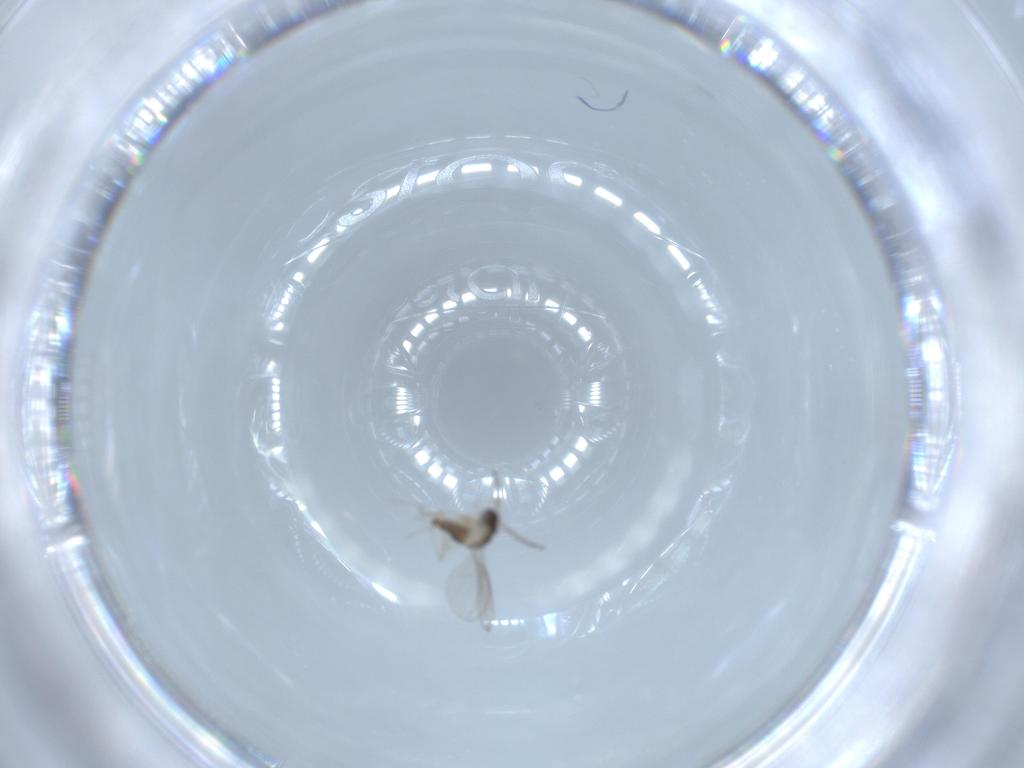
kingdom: Animalia
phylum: Arthropoda
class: Insecta
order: Diptera
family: Cecidomyiidae
